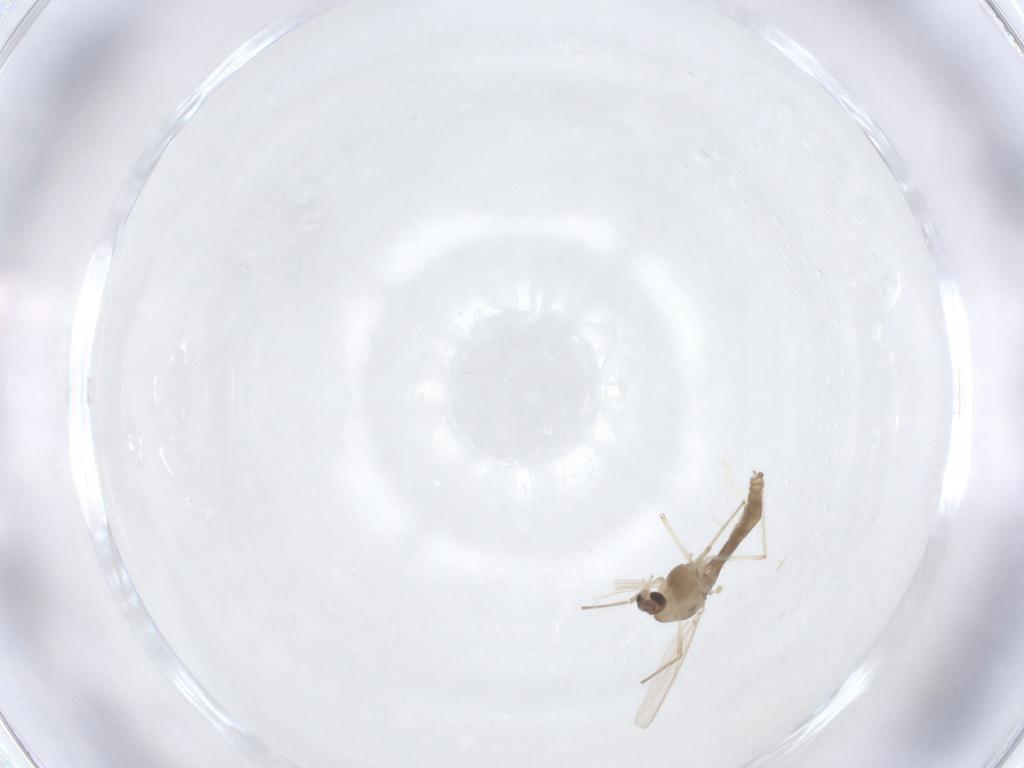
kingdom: Animalia
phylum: Arthropoda
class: Insecta
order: Diptera
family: Chironomidae
